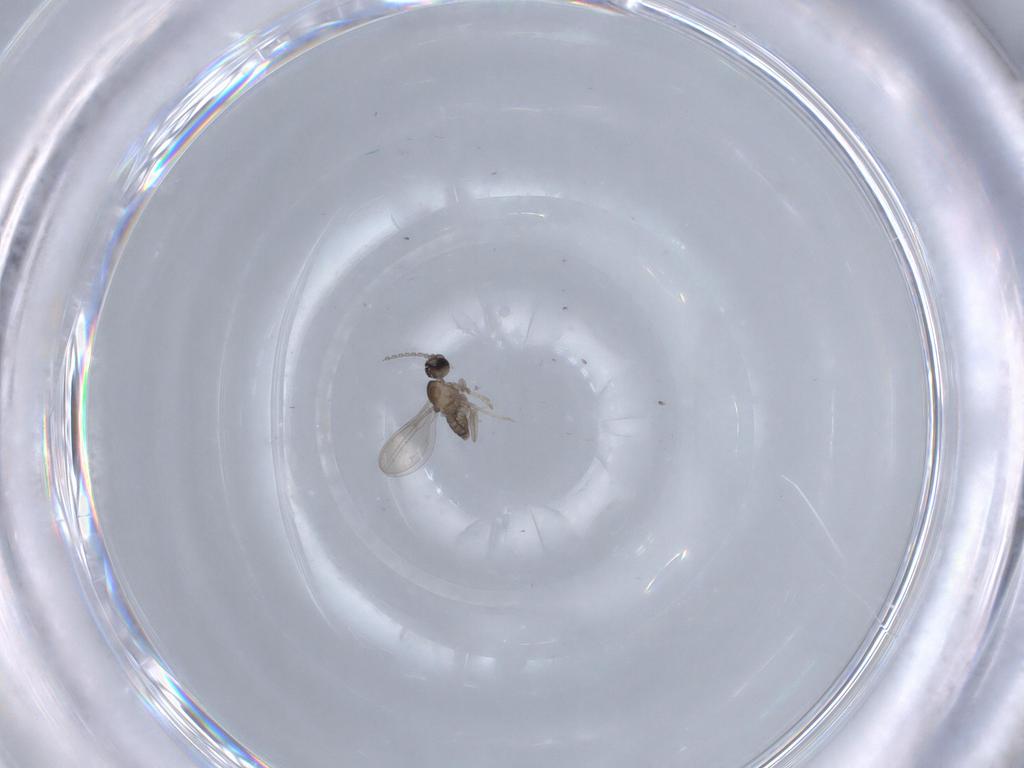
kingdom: Animalia
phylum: Arthropoda
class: Insecta
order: Diptera
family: Cecidomyiidae
